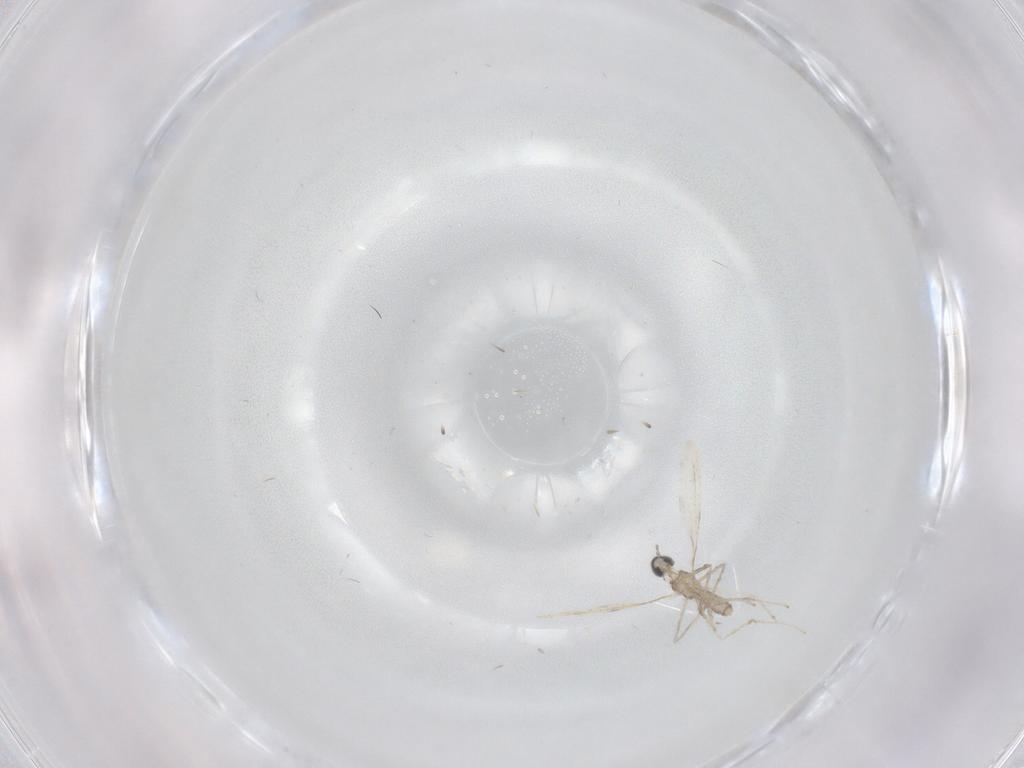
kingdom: Animalia
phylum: Arthropoda
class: Insecta
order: Diptera
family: Cecidomyiidae
